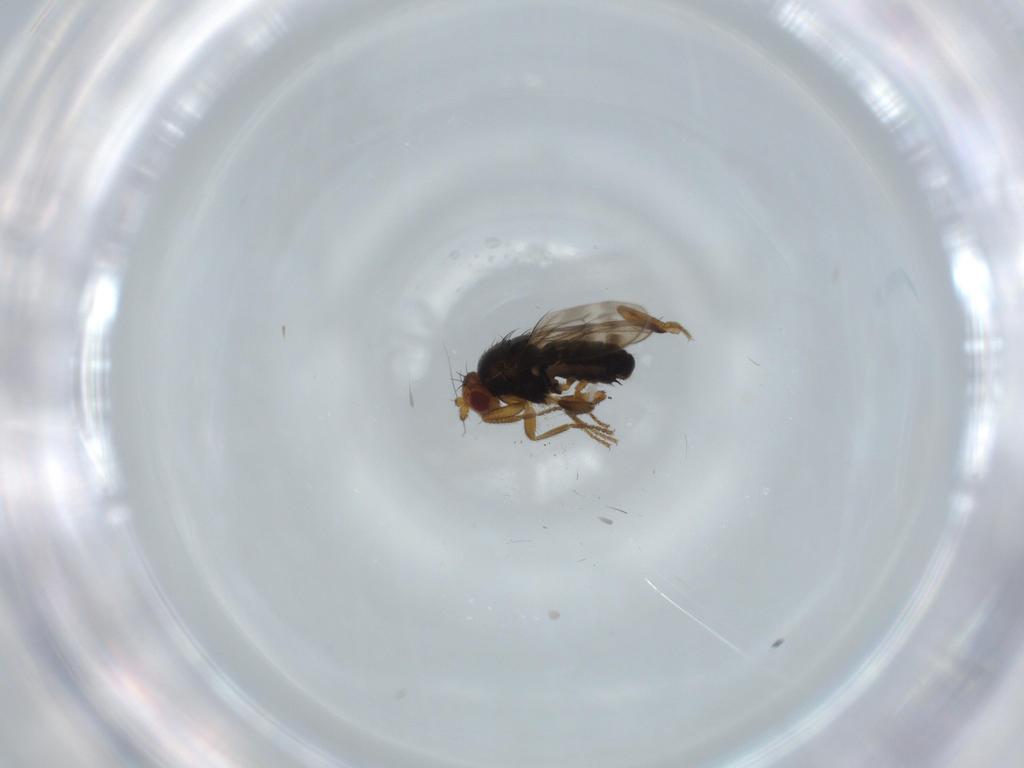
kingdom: Animalia
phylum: Arthropoda
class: Insecta
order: Diptera
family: Sphaeroceridae
